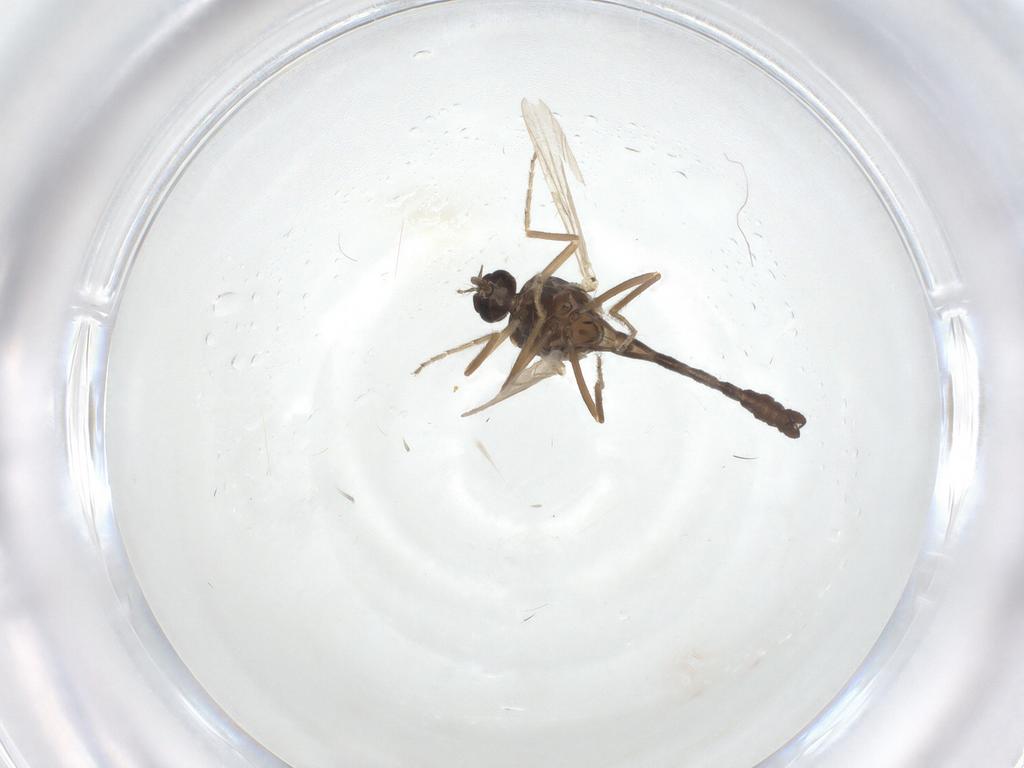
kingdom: Animalia
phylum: Arthropoda
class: Insecta
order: Diptera
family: Ceratopogonidae
